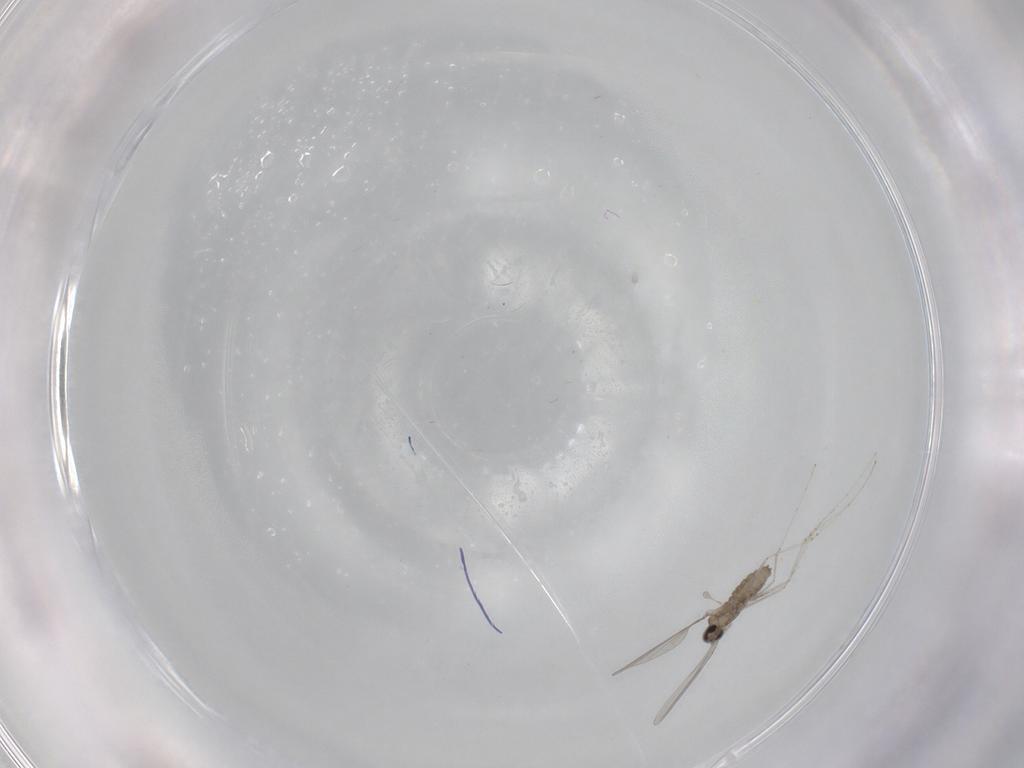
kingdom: Animalia
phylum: Arthropoda
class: Insecta
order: Diptera
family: Cecidomyiidae
